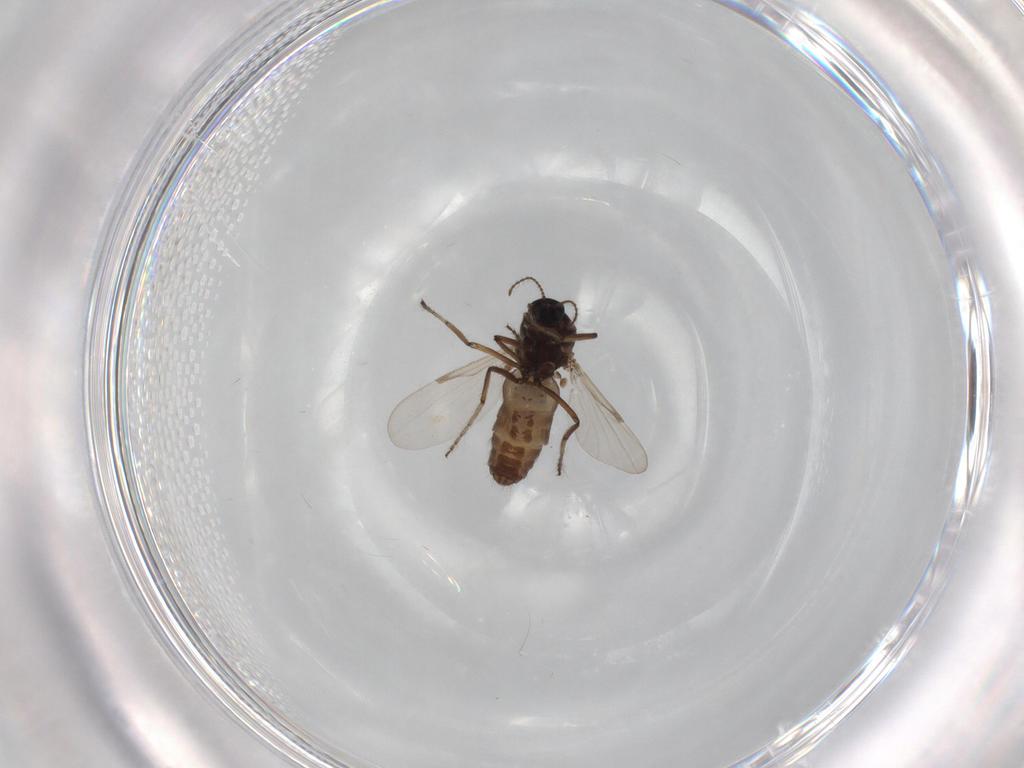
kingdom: Animalia
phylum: Arthropoda
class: Insecta
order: Diptera
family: Chironomidae
